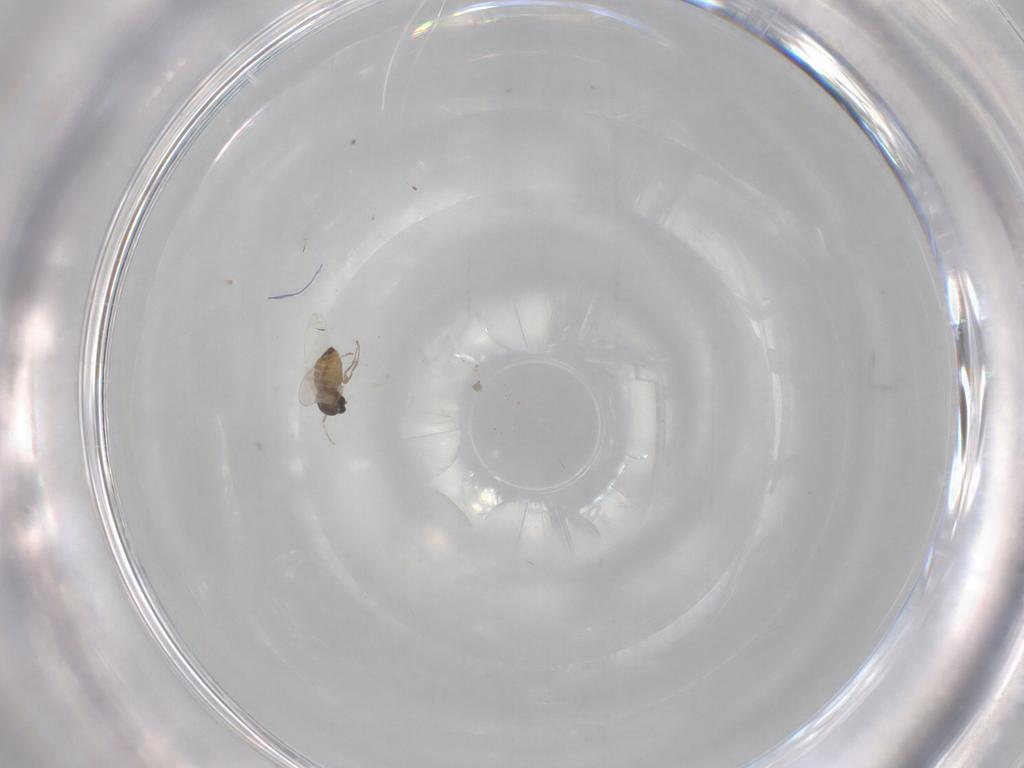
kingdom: Animalia
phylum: Arthropoda
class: Insecta
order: Diptera
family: Cecidomyiidae
